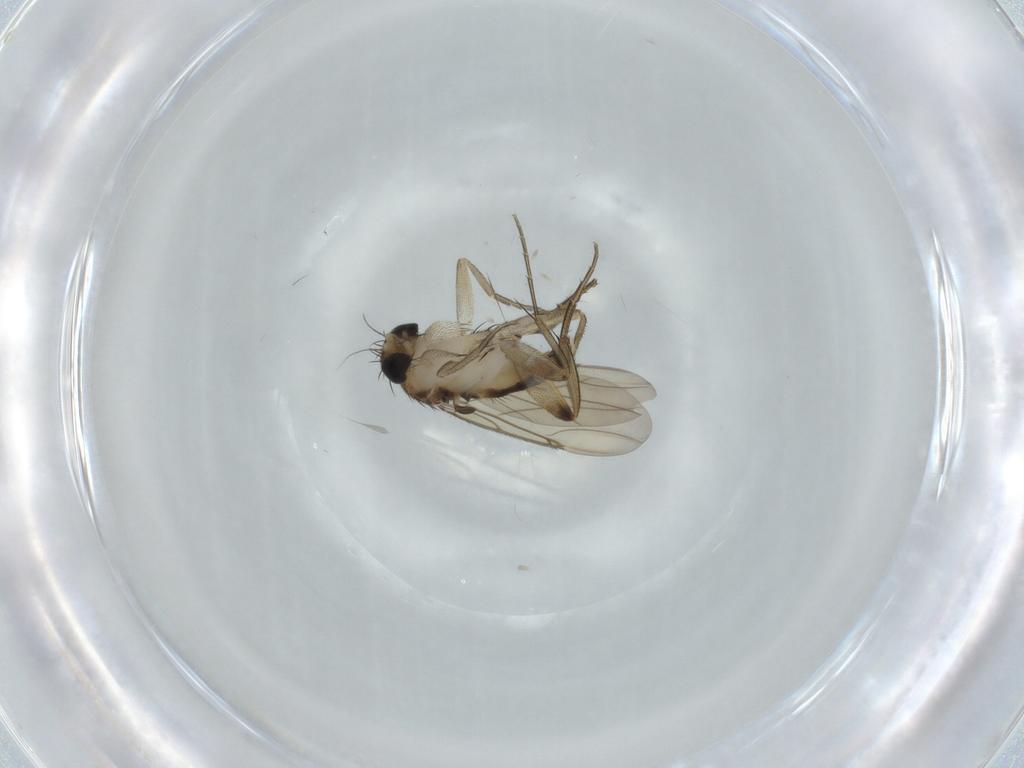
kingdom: Animalia
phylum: Arthropoda
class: Insecta
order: Diptera
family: Phoridae
